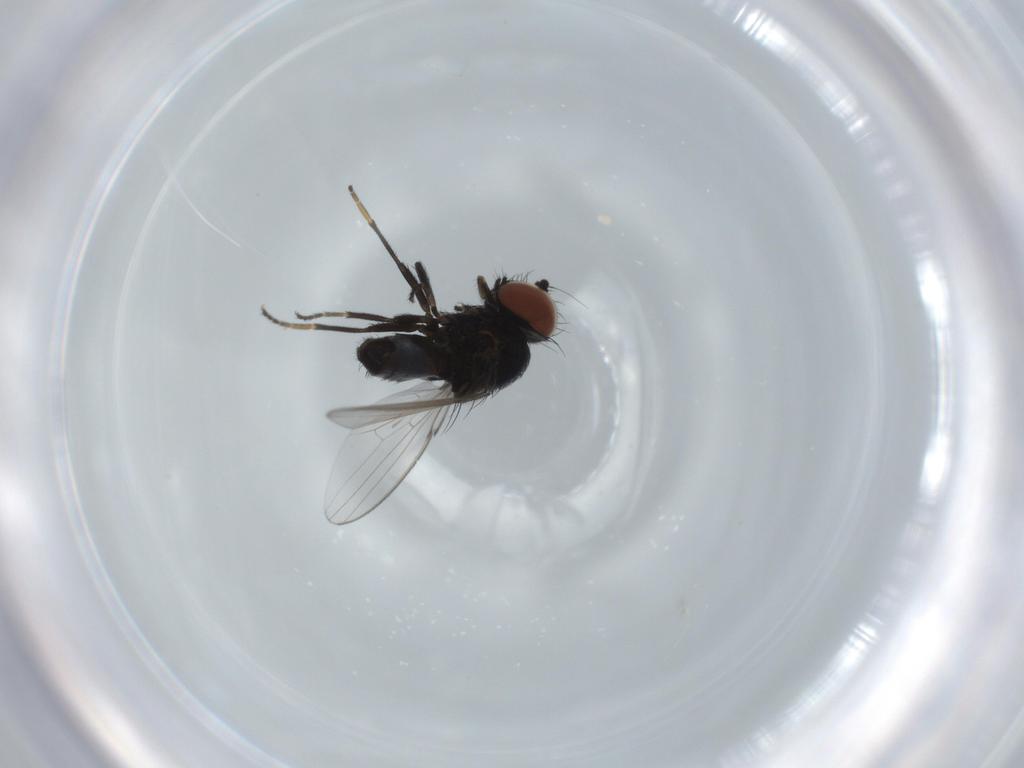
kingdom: Animalia
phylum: Arthropoda
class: Insecta
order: Diptera
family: Milichiidae
